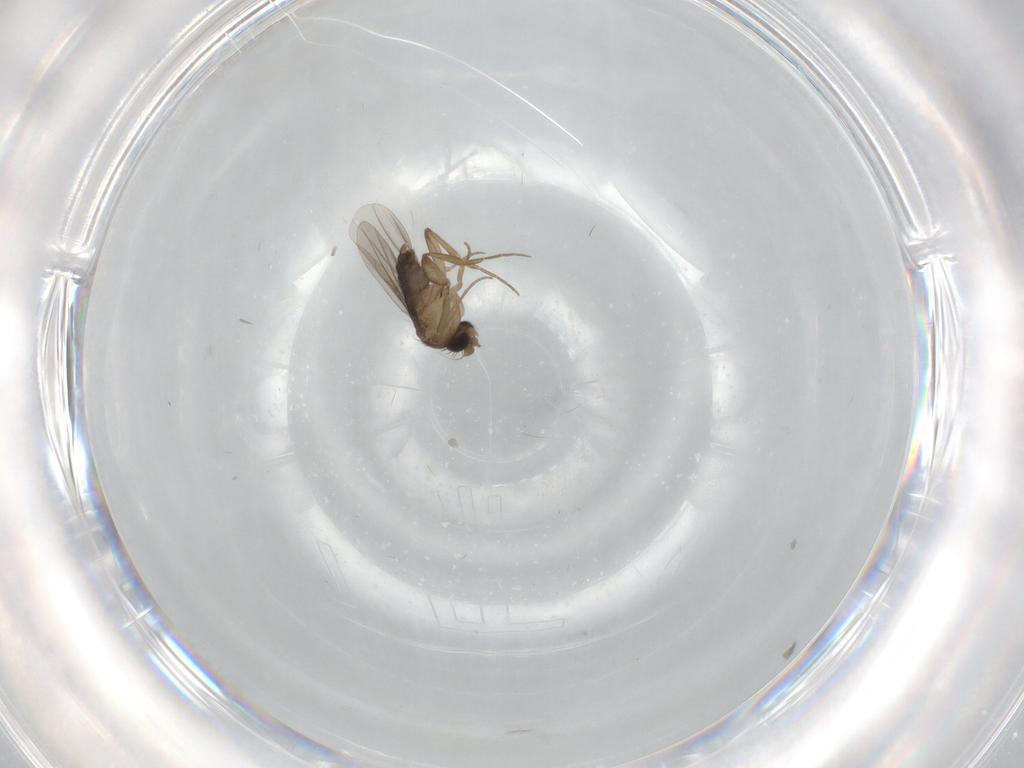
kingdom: Animalia
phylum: Arthropoda
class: Insecta
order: Diptera
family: Phoridae
